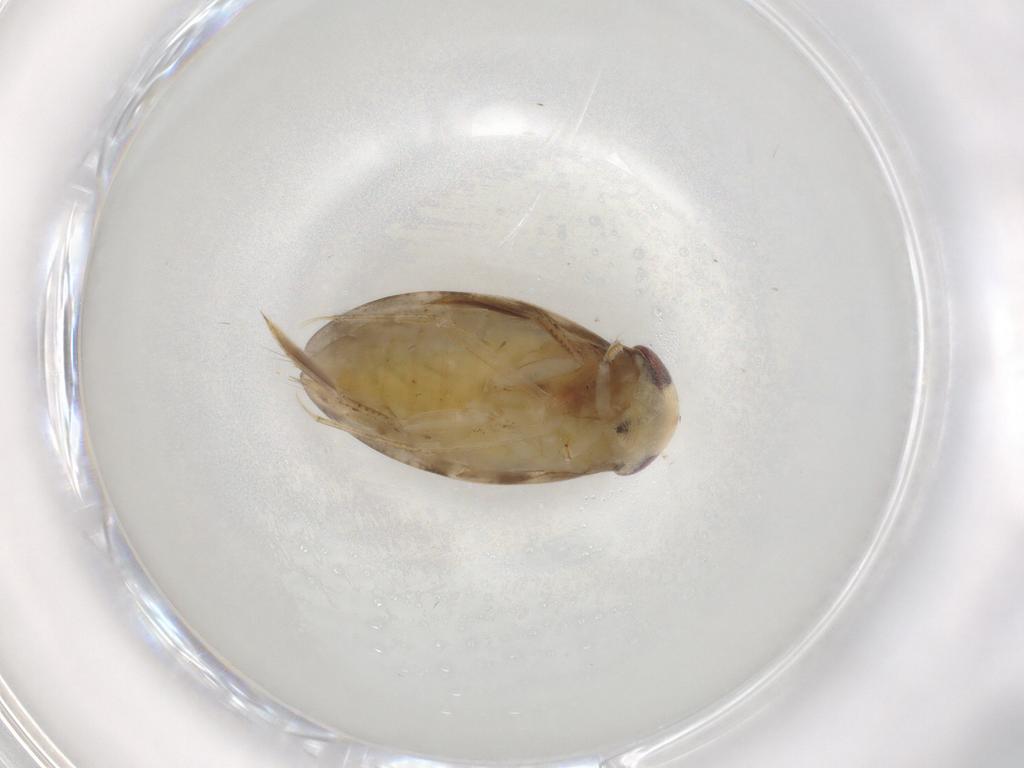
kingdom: Animalia
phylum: Arthropoda
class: Insecta
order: Hemiptera
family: Corixidae
